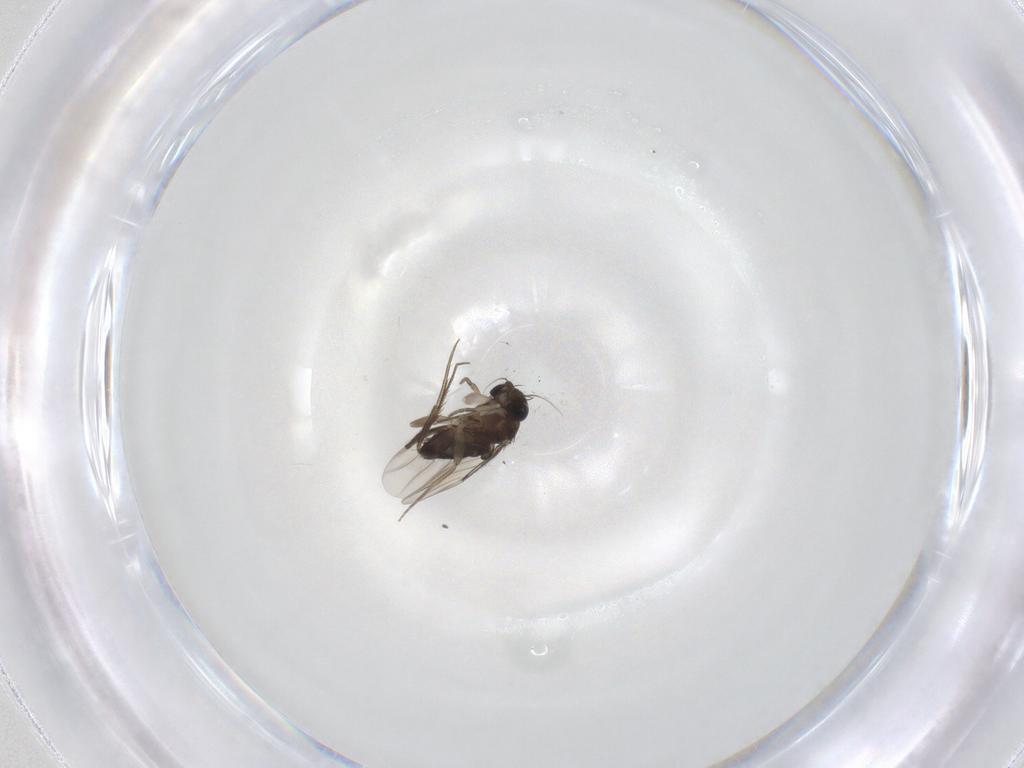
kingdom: Animalia
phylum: Arthropoda
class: Insecta
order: Diptera
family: Phoridae
